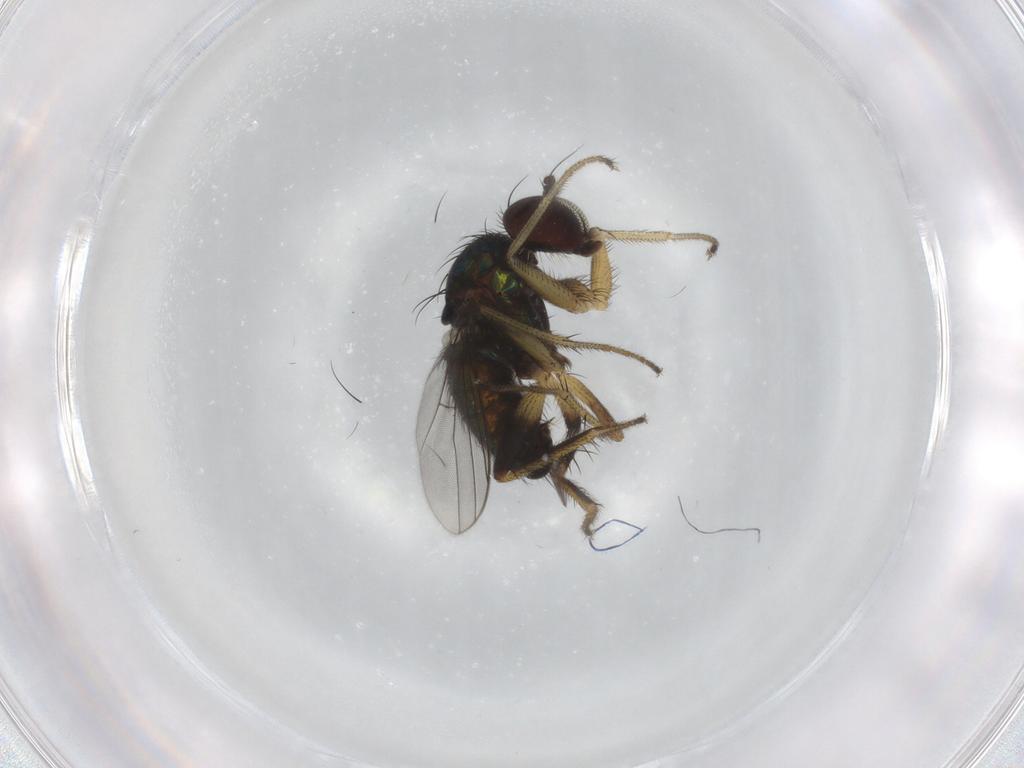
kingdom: Animalia
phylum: Arthropoda
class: Insecta
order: Diptera
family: Dolichopodidae
